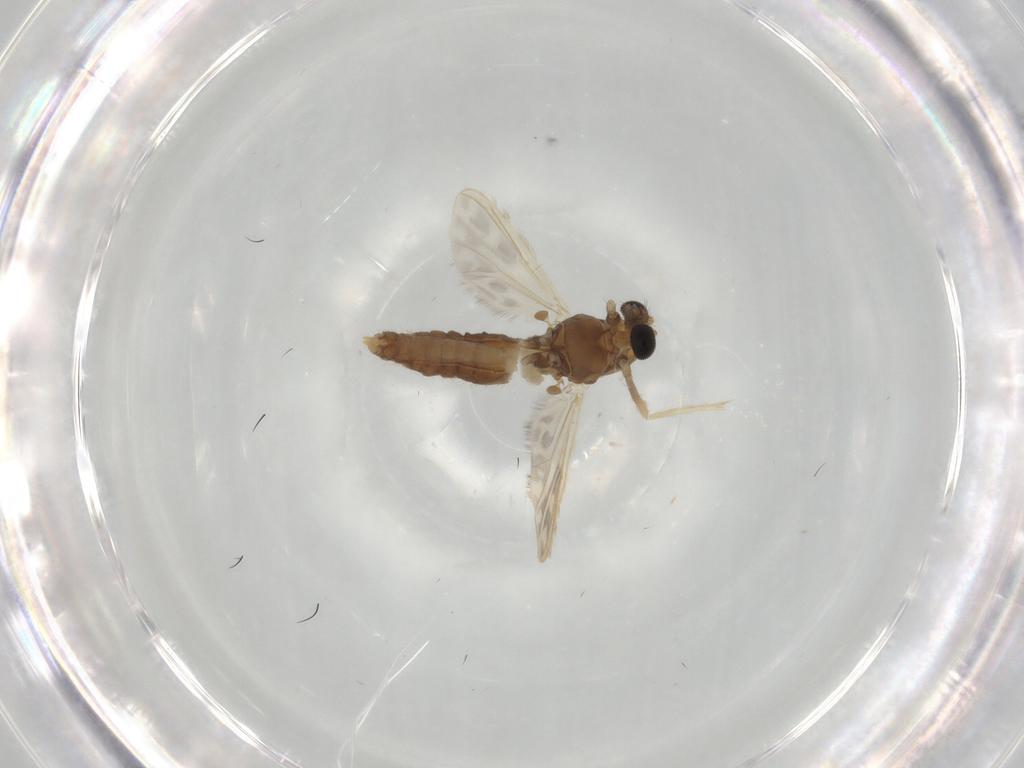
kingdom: Animalia
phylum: Arthropoda
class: Insecta
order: Diptera
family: Chironomidae
